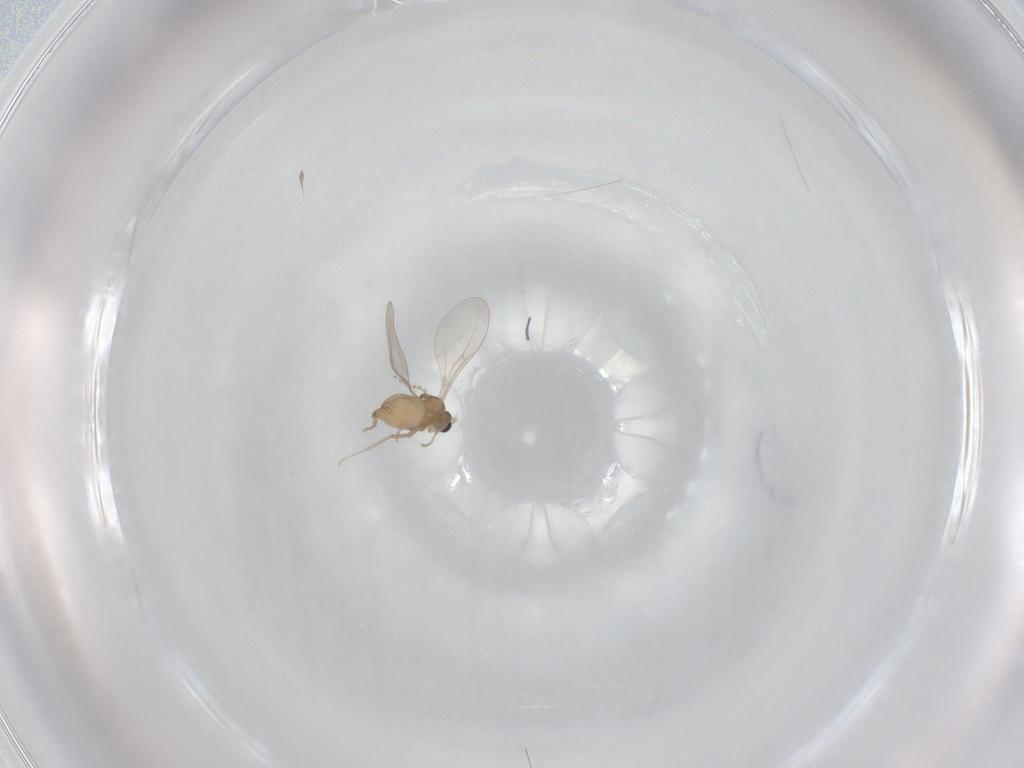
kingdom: Animalia
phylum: Arthropoda
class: Insecta
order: Diptera
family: Cecidomyiidae
